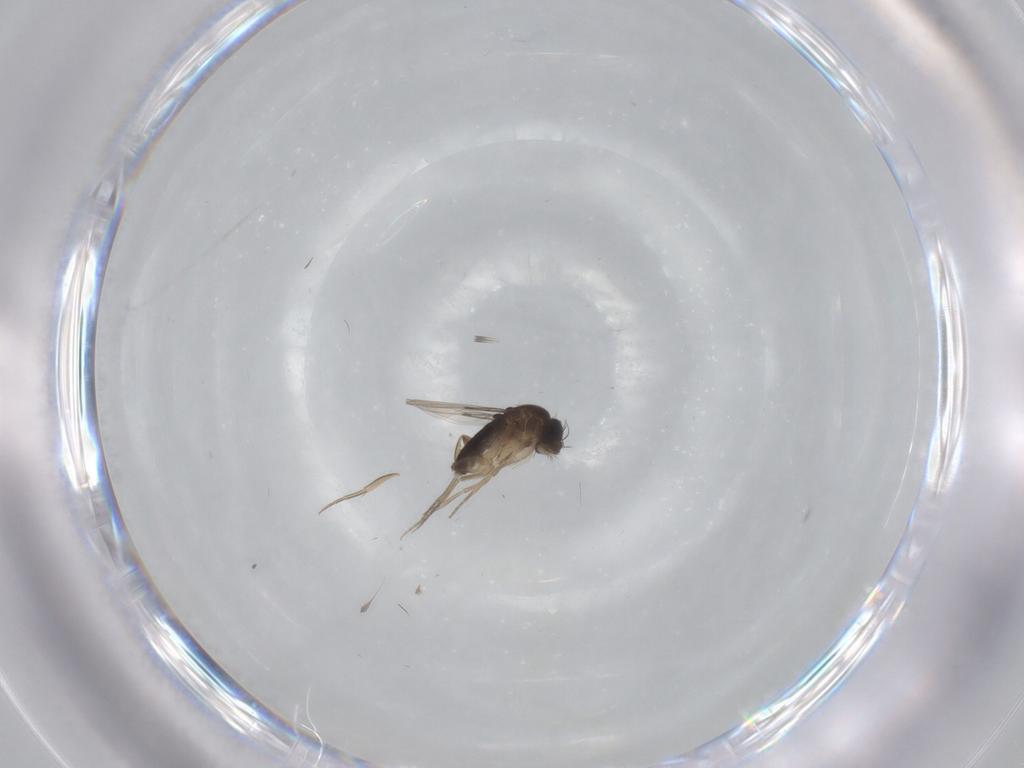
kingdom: Animalia
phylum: Arthropoda
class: Insecta
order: Diptera
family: Phoridae
